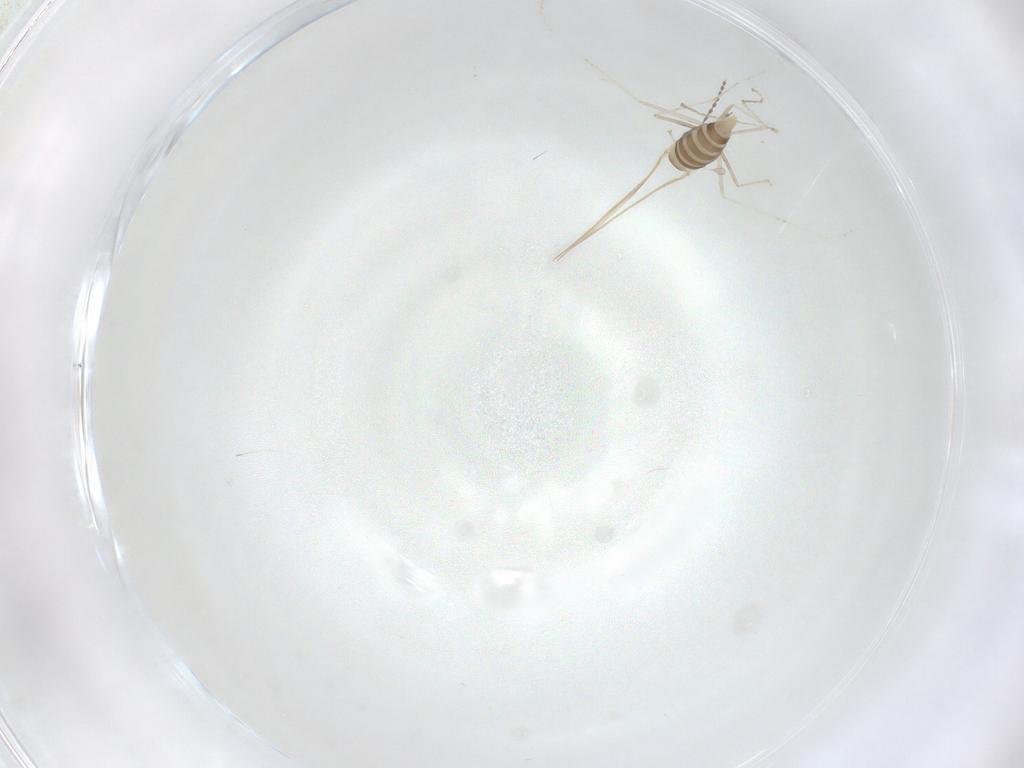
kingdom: Animalia
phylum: Arthropoda
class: Insecta
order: Diptera
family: Cecidomyiidae
